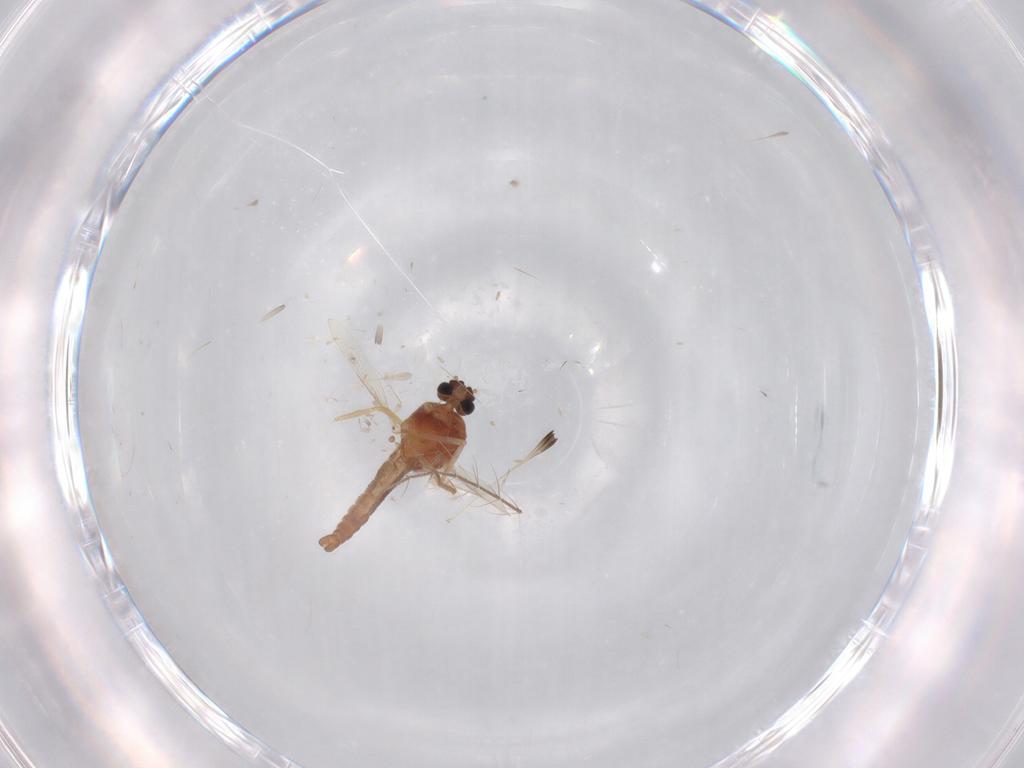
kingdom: Animalia
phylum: Arthropoda
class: Insecta
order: Diptera
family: Ceratopogonidae
